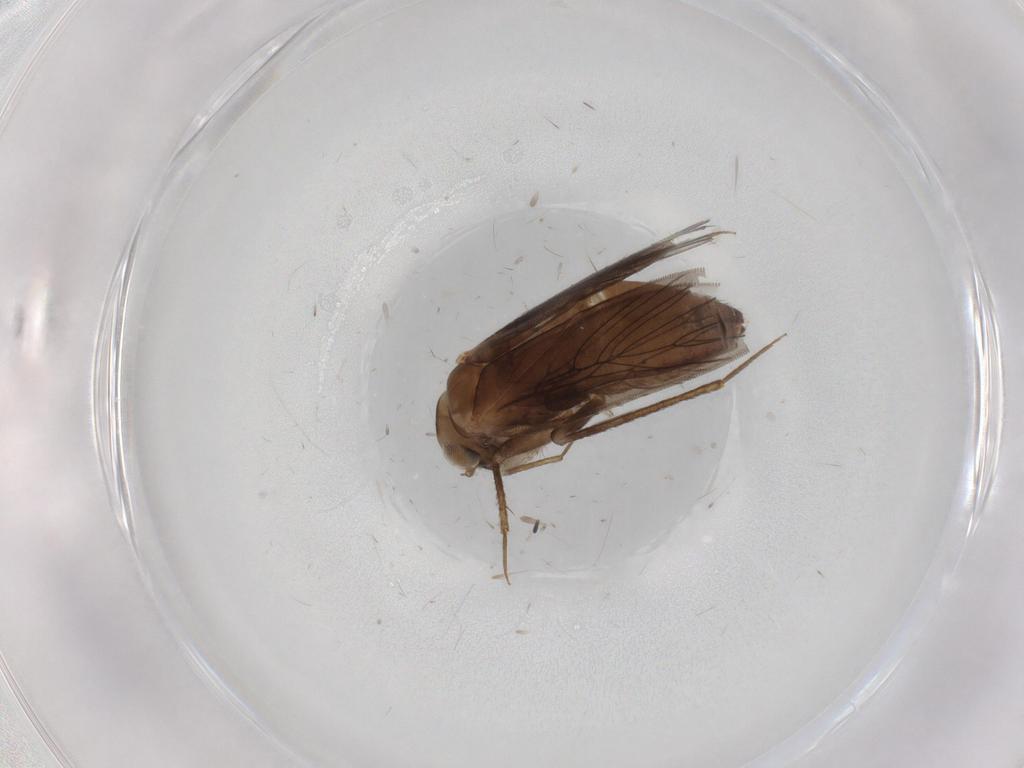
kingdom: Animalia
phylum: Arthropoda
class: Insecta
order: Psocodea
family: Lepidopsocidae
